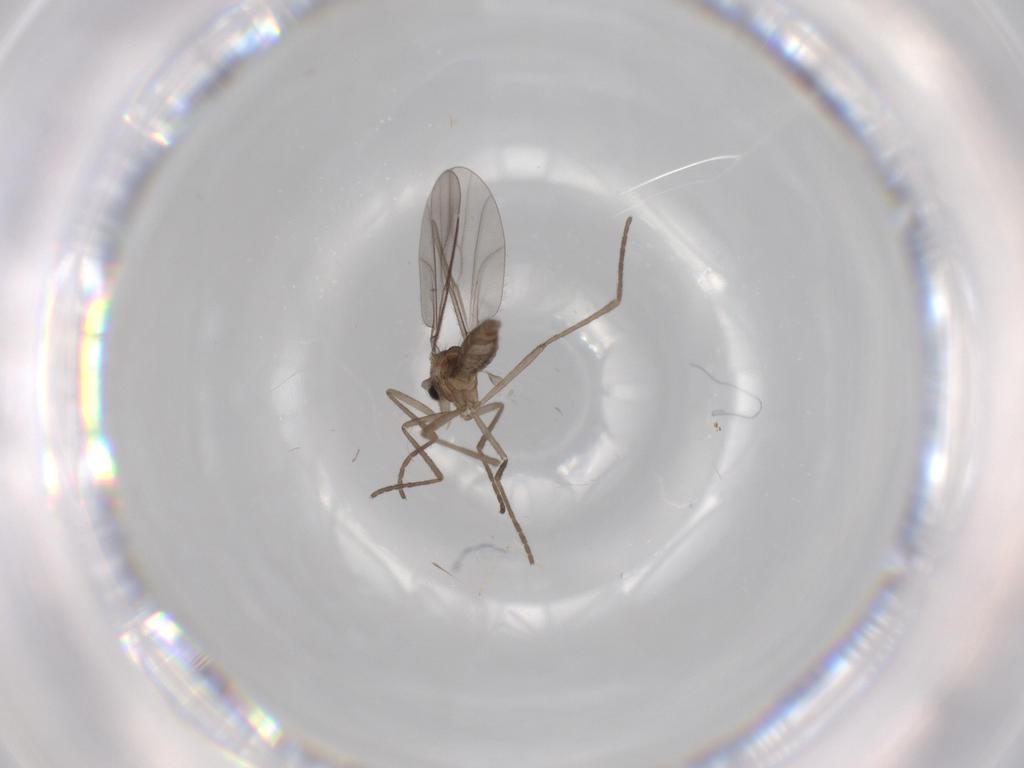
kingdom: Animalia
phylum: Arthropoda
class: Insecta
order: Diptera
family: Cecidomyiidae
